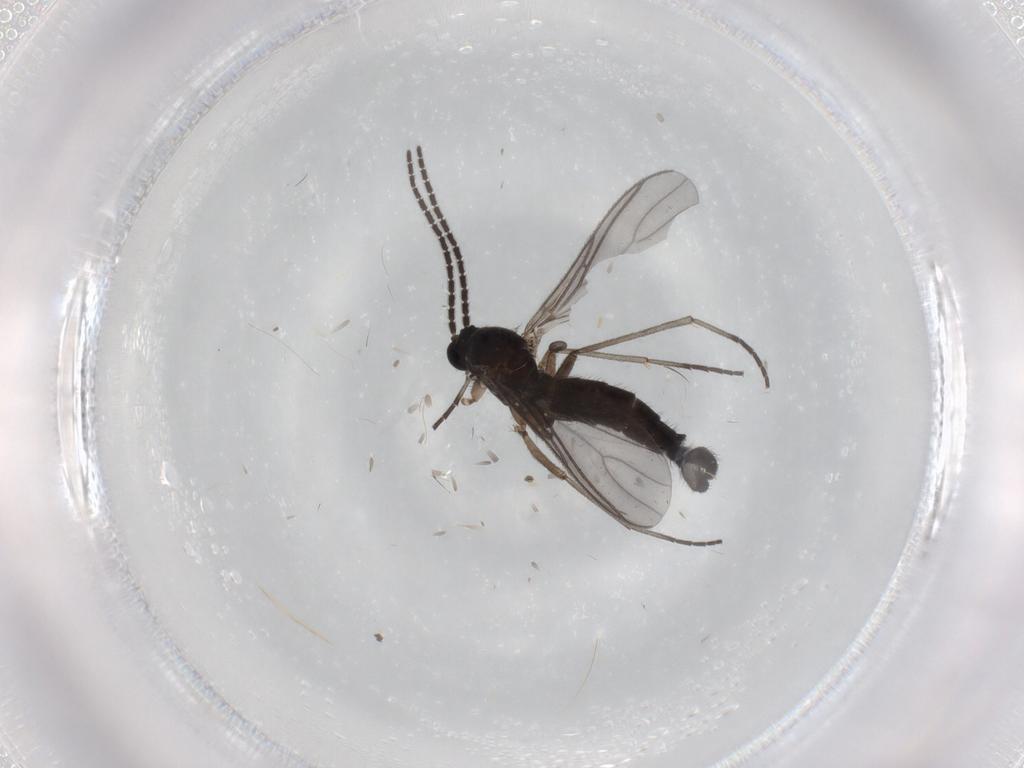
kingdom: Animalia
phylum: Arthropoda
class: Insecta
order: Diptera
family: Sciaridae
